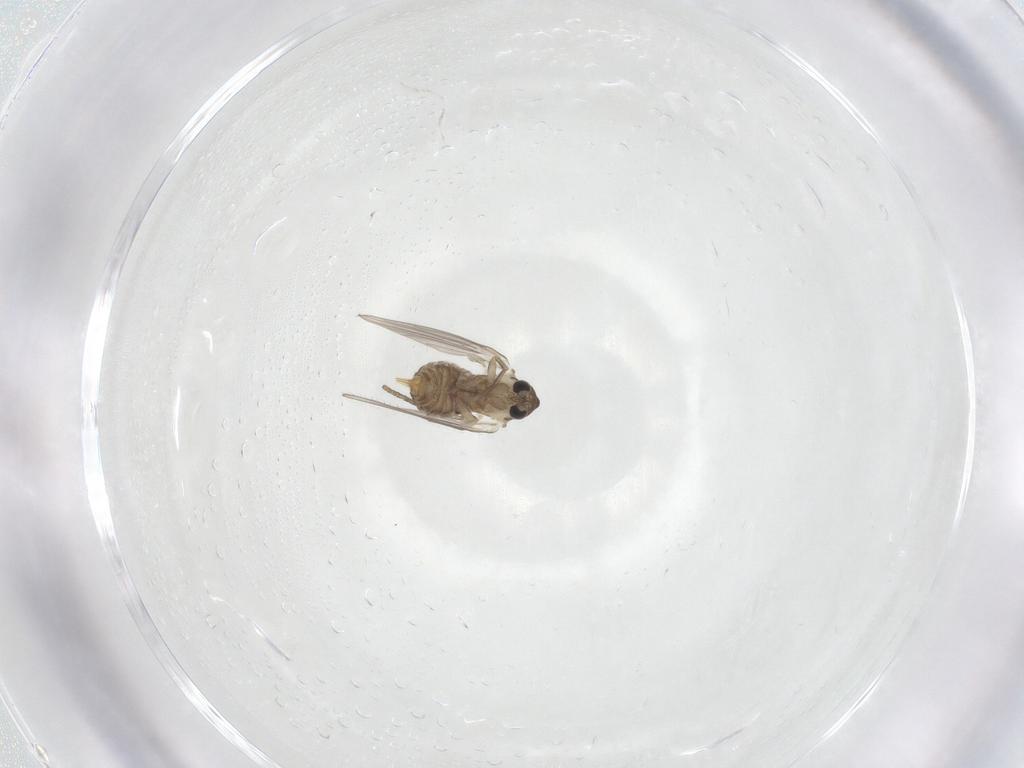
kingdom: Animalia
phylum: Arthropoda
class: Insecta
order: Diptera
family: Psychodidae
